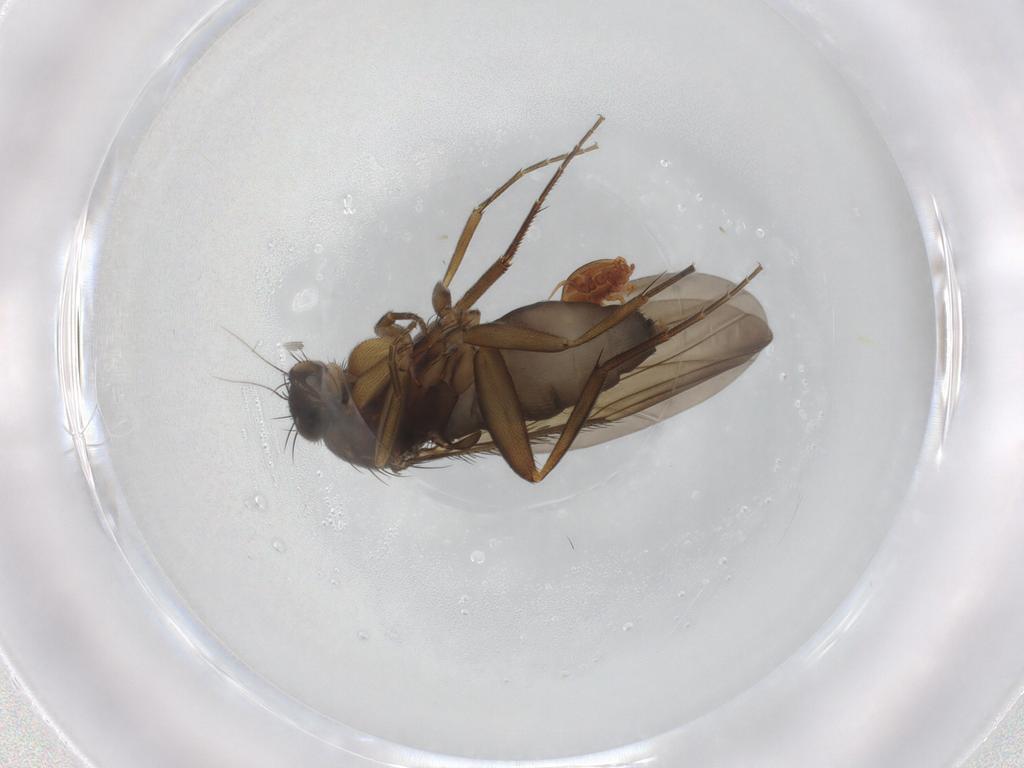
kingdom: Animalia
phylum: Arthropoda
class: Insecta
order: Diptera
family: Phoridae
